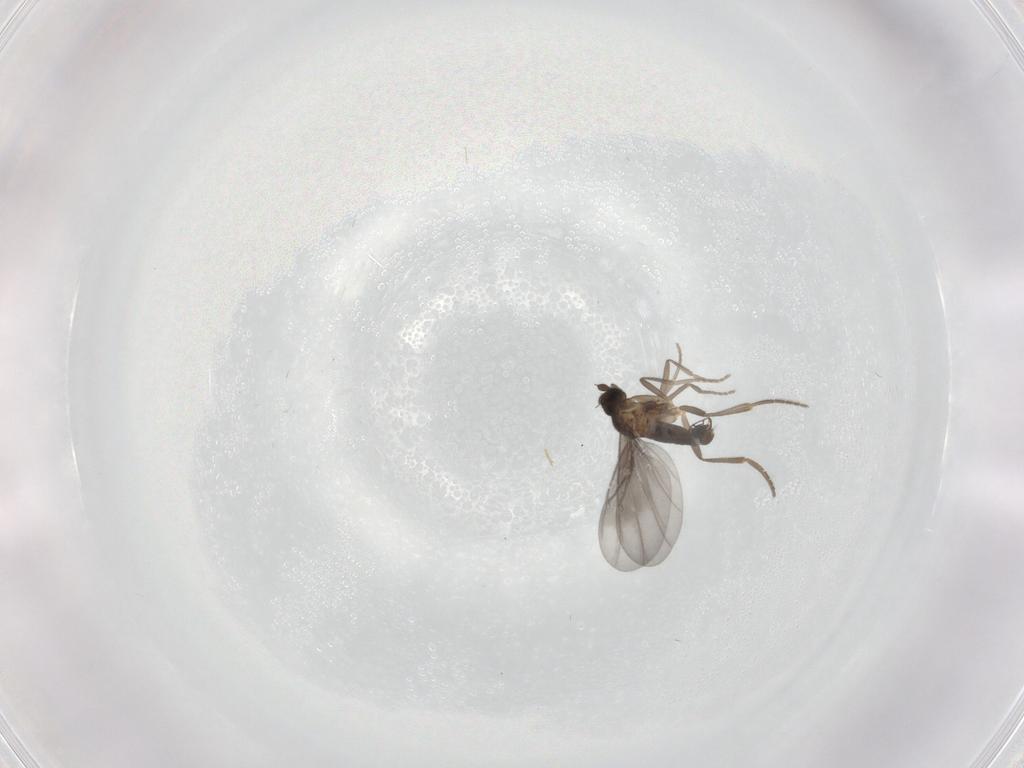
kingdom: Animalia
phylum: Arthropoda
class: Insecta
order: Diptera
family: Phoridae
